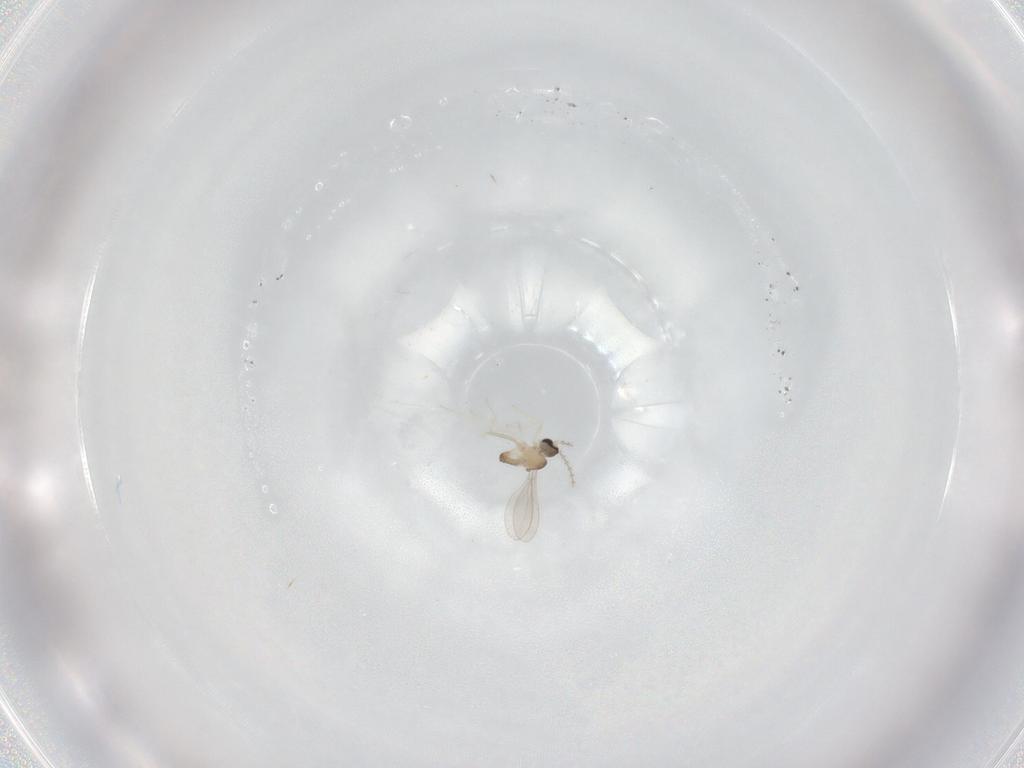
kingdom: Animalia
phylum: Arthropoda
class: Insecta
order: Diptera
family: Cecidomyiidae
